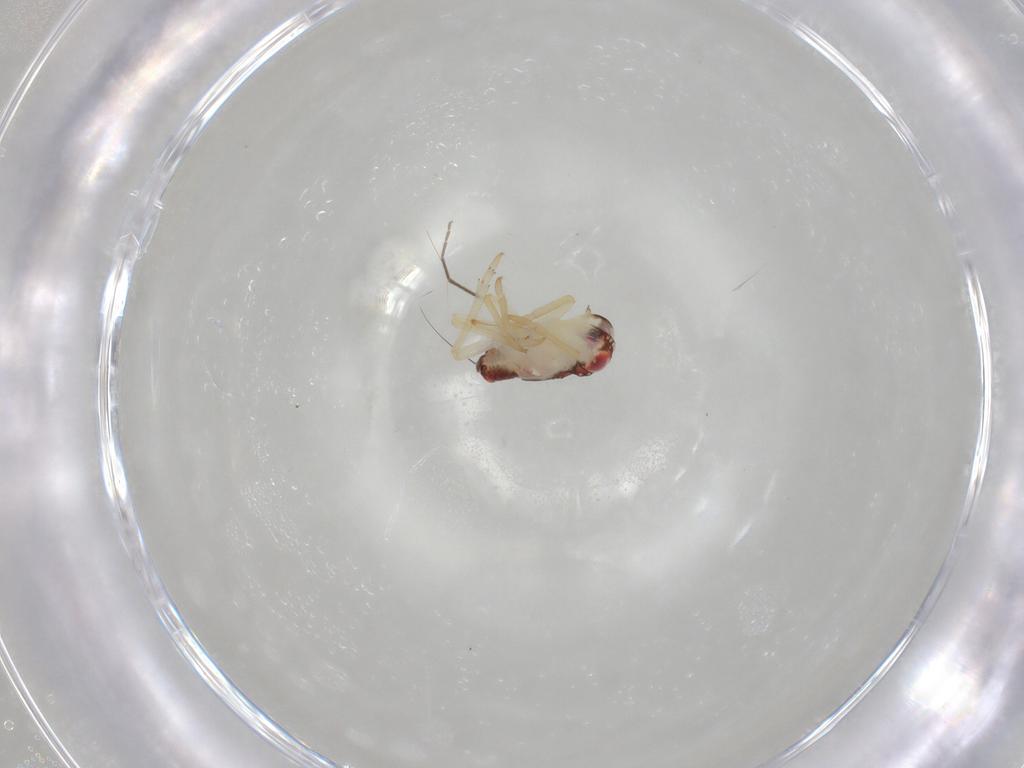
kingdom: Animalia
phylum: Arthropoda
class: Insecta
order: Hemiptera
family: Tropiduchidae
